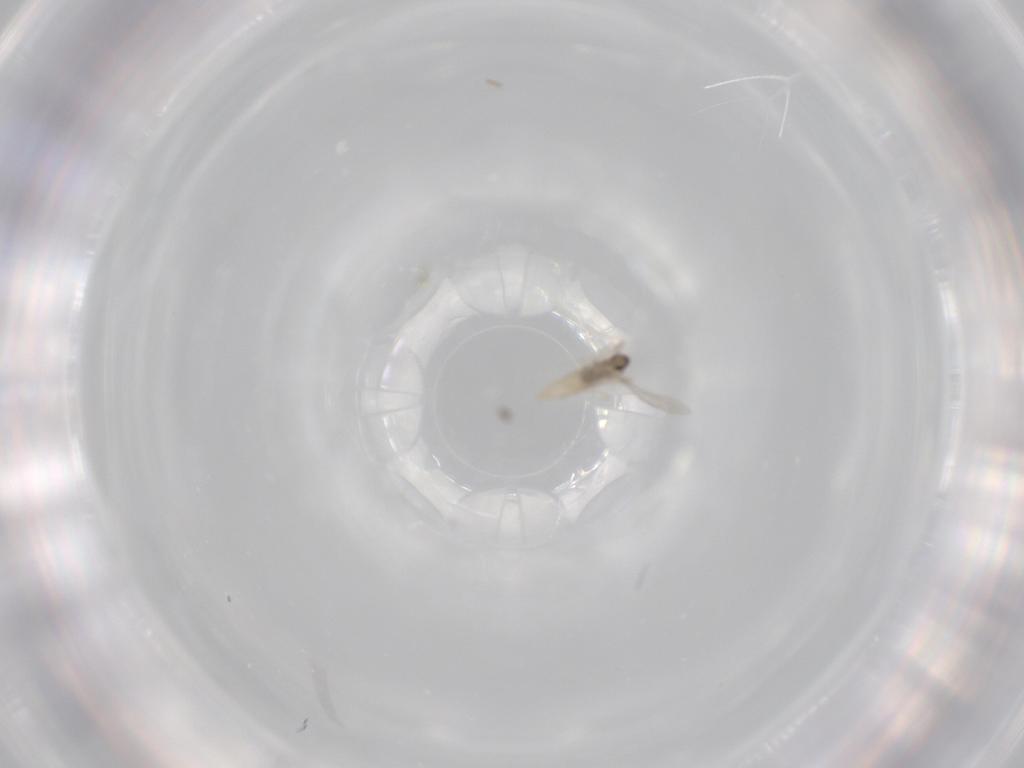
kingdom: Animalia
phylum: Arthropoda
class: Insecta
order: Diptera
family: Cecidomyiidae
